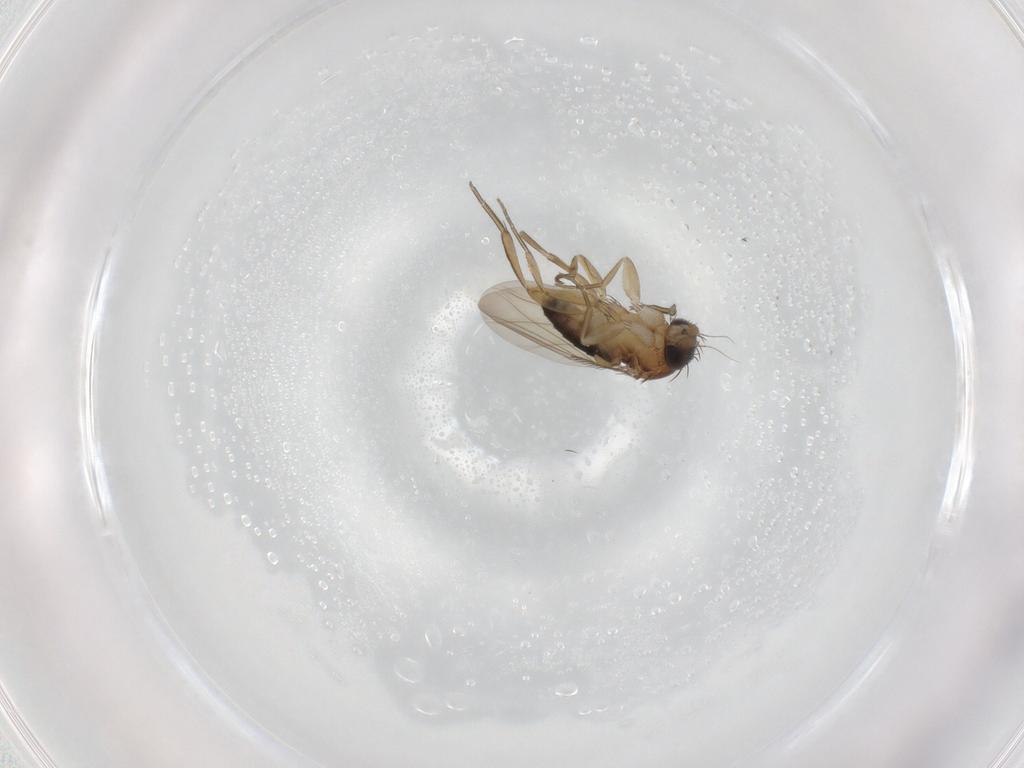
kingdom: Animalia
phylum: Arthropoda
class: Insecta
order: Diptera
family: Phoridae
